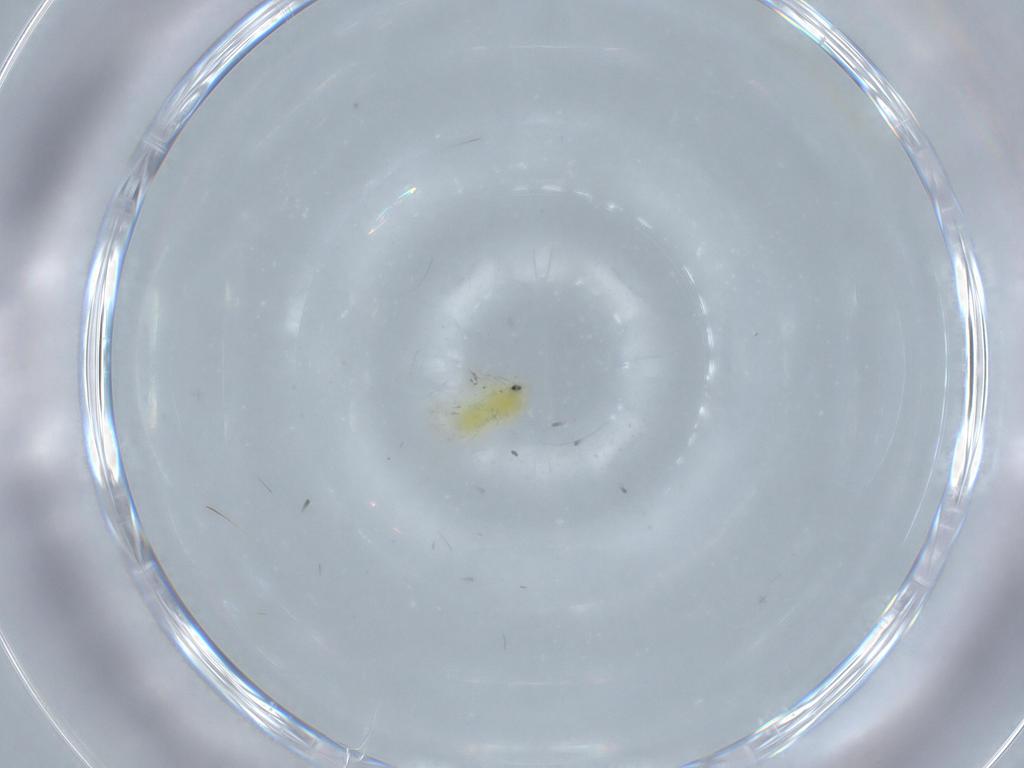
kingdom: Animalia
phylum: Arthropoda
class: Insecta
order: Hemiptera
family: Aleyrodidae
